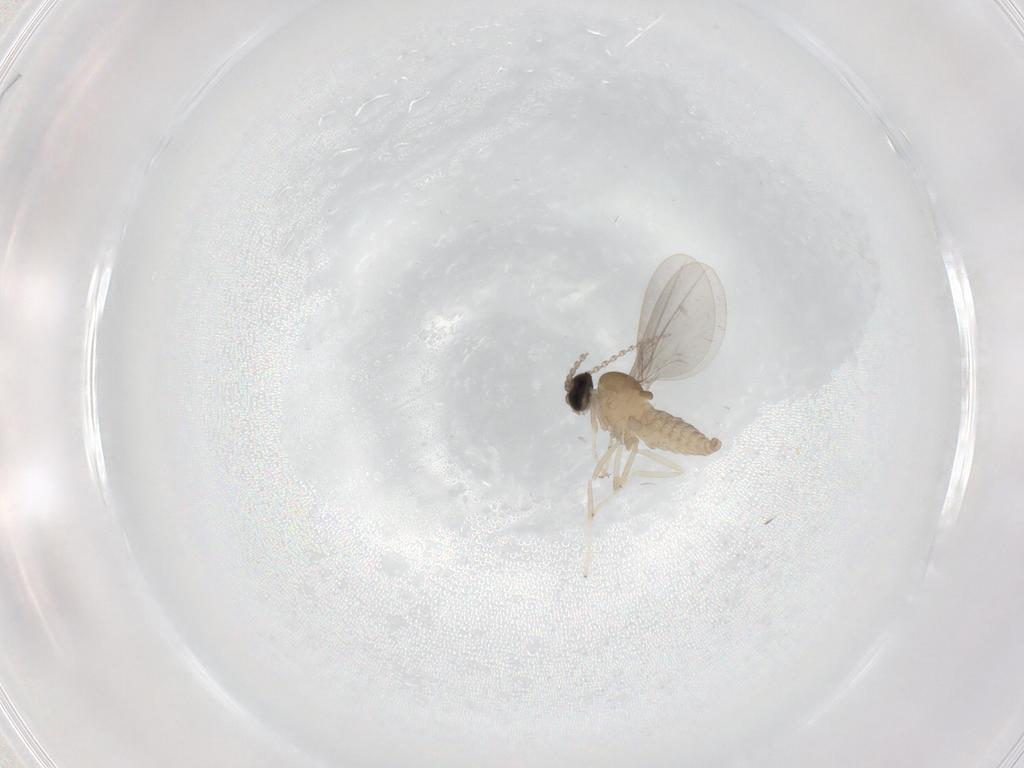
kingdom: Animalia
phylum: Arthropoda
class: Insecta
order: Diptera
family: Cecidomyiidae
